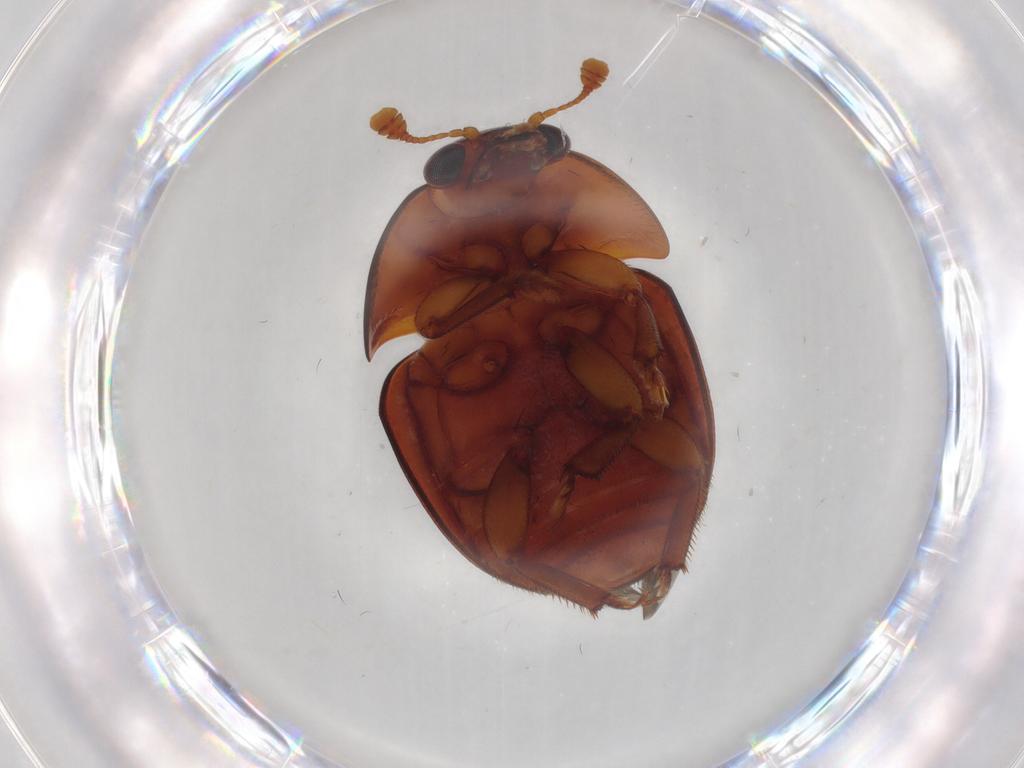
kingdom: Animalia
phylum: Arthropoda
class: Insecta
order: Coleoptera
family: Nitidulidae
